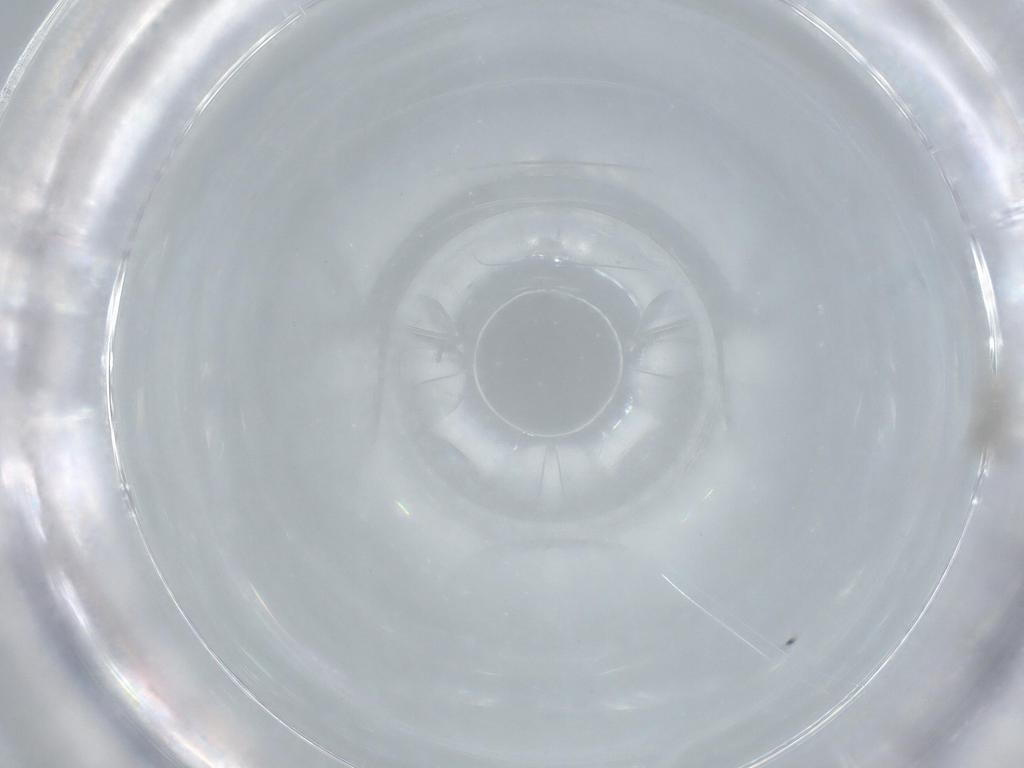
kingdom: Animalia
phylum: Arthropoda
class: Insecta
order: Diptera
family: Phoridae
